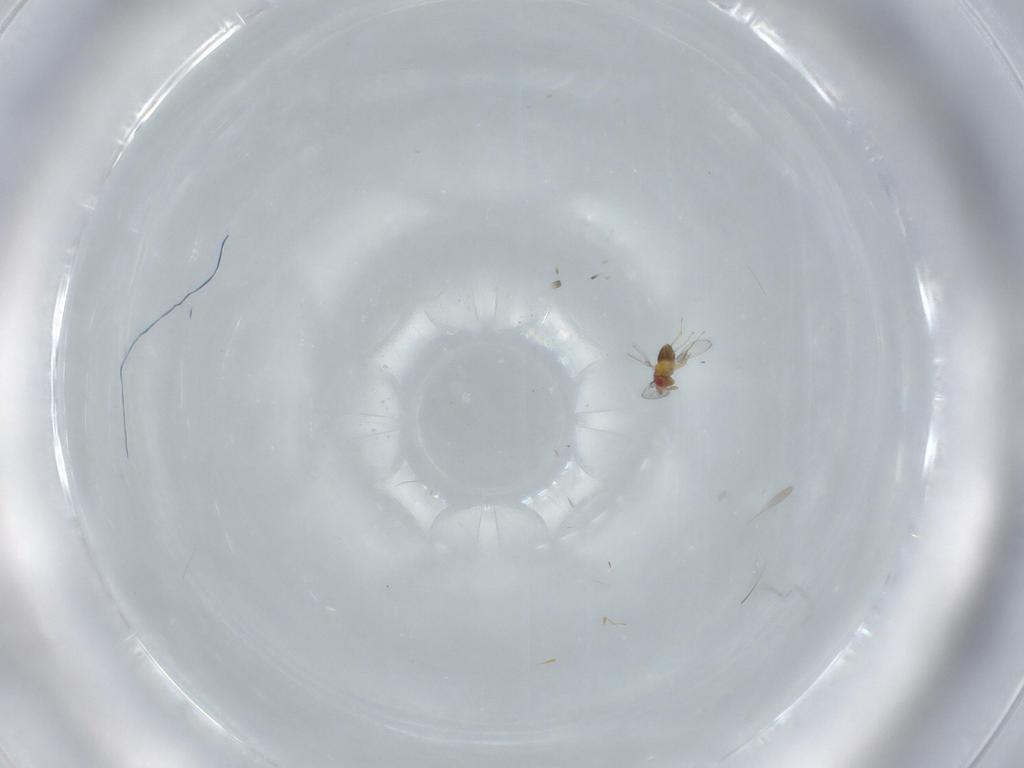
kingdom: Animalia
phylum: Arthropoda
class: Insecta
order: Hymenoptera
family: Trichogrammatidae
